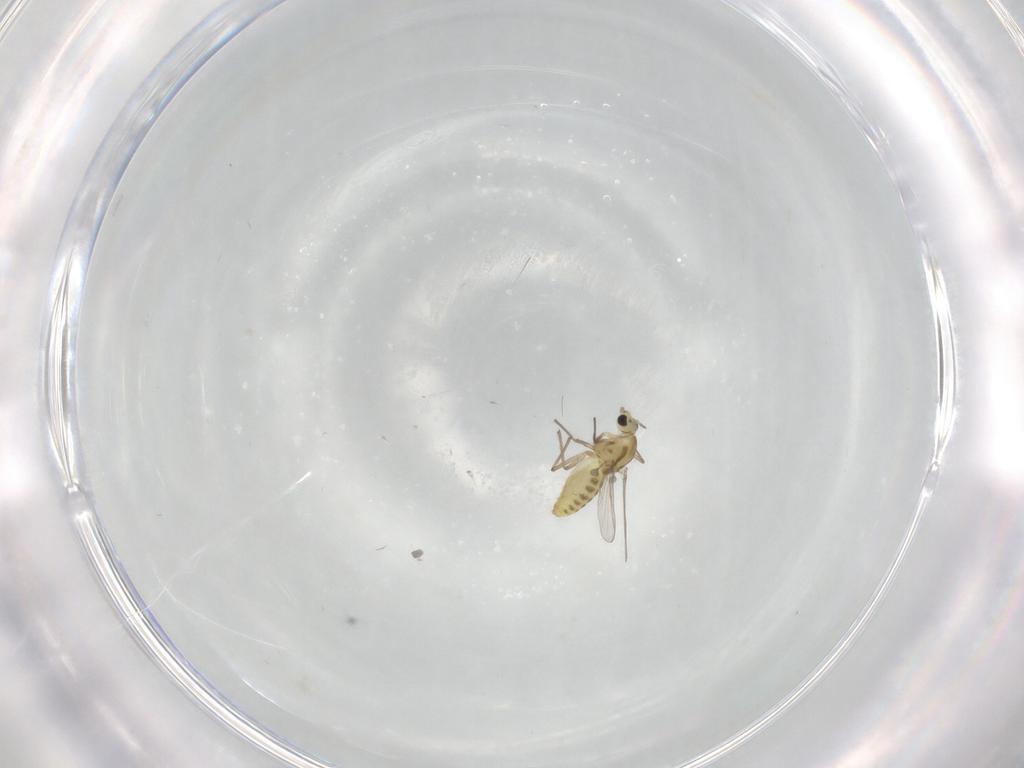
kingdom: Animalia
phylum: Arthropoda
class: Insecta
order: Diptera
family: Chironomidae
